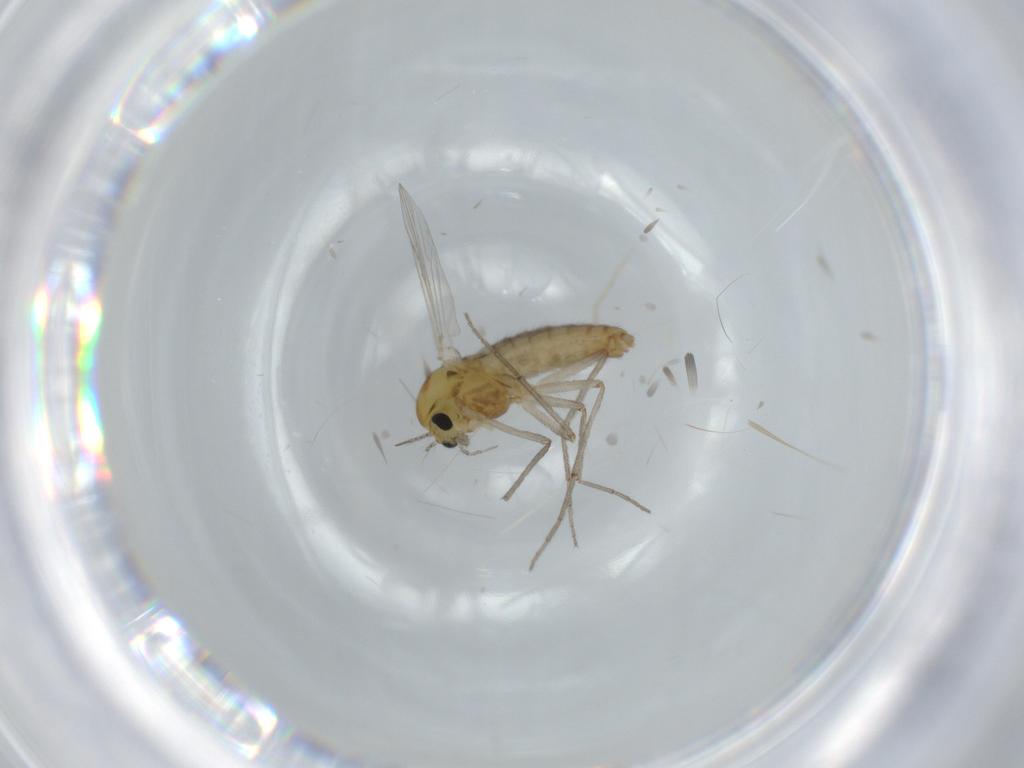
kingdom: Animalia
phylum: Arthropoda
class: Insecta
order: Diptera
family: Chironomidae
